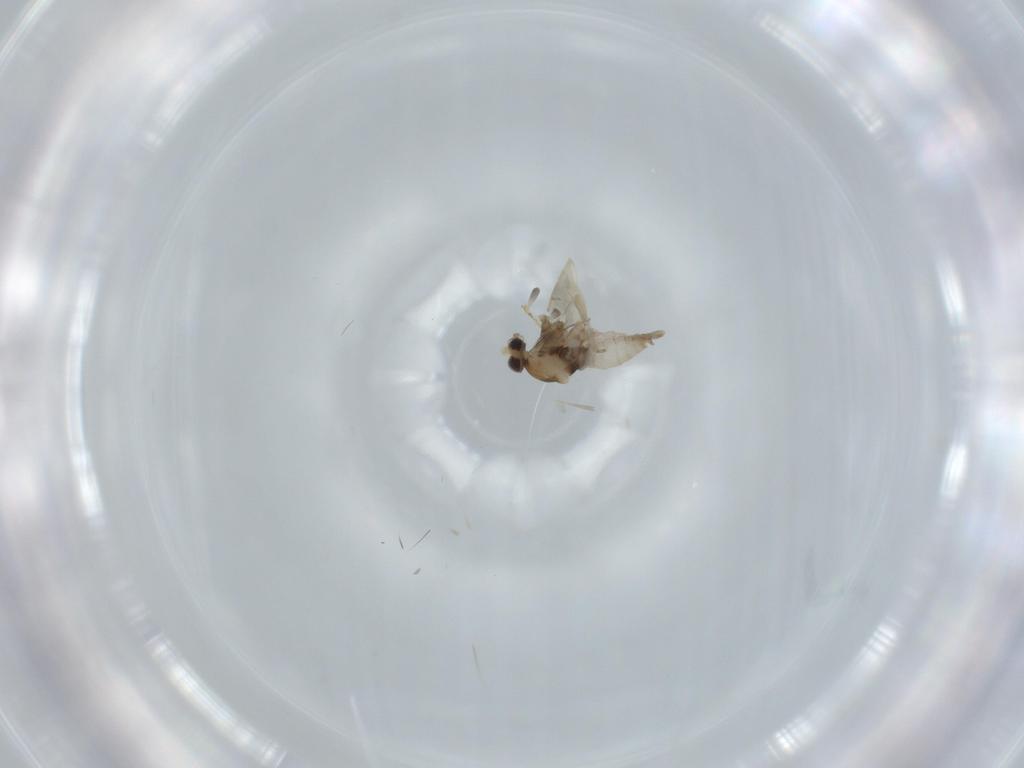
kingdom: Animalia
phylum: Arthropoda
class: Insecta
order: Diptera
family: Cecidomyiidae
